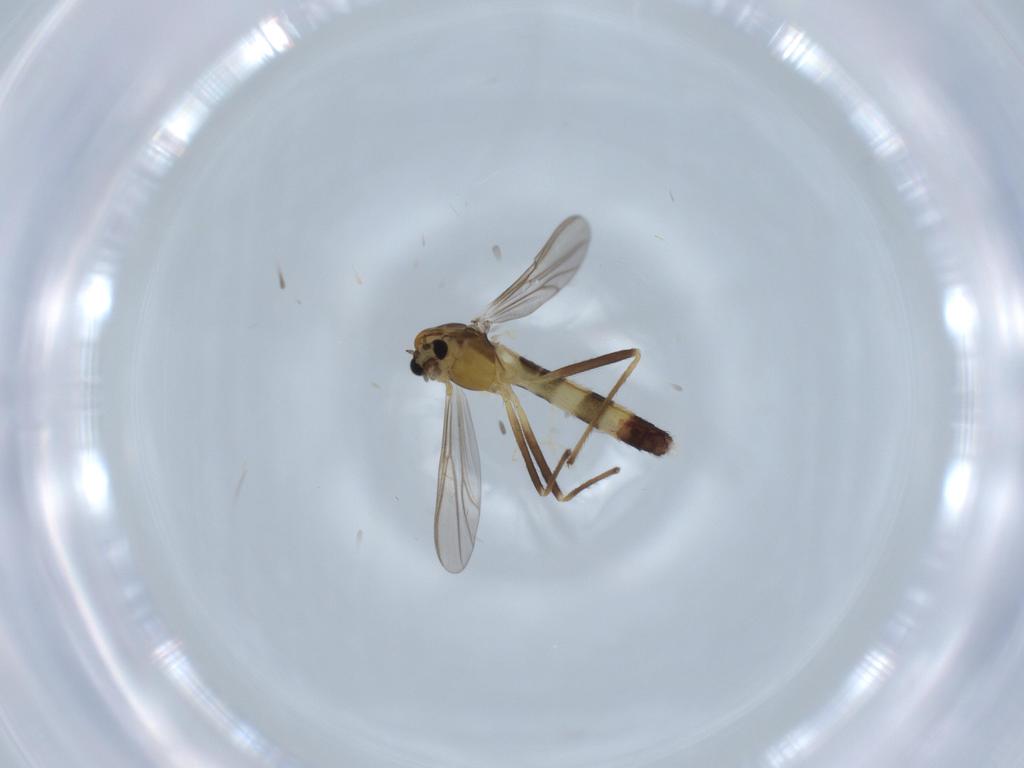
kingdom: Animalia
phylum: Arthropoda
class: Insecta
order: Diptera
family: Chironomidae
